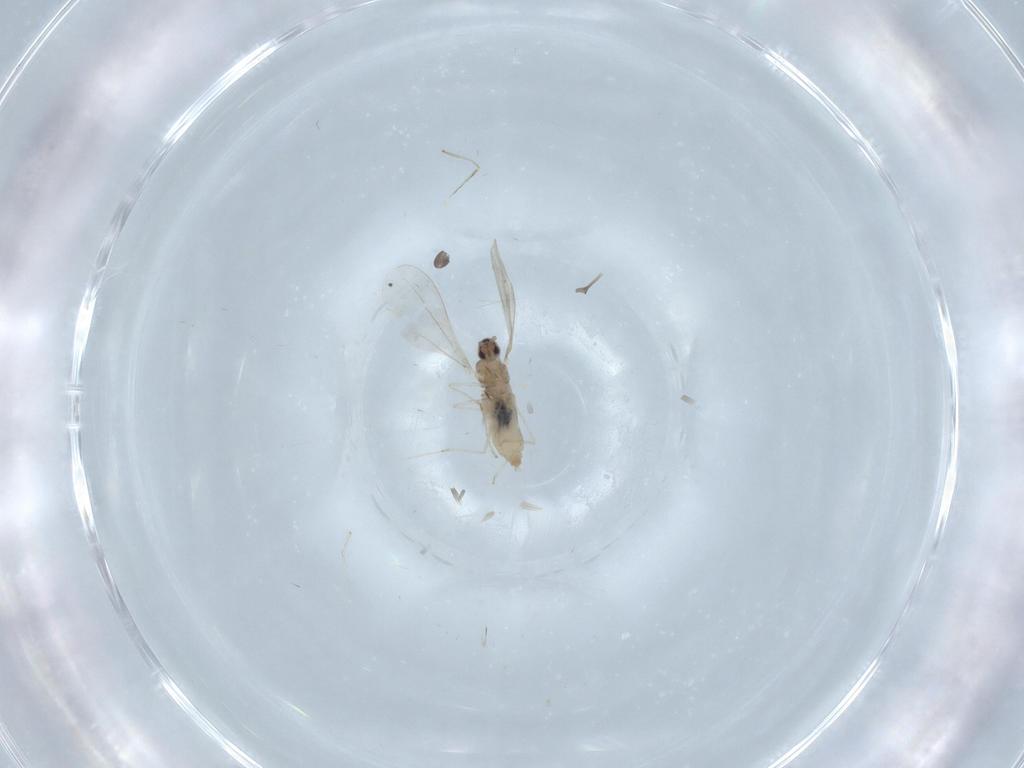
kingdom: Animalia
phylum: Arthropoda
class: Insecta
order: Diptera
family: Cecidomyiidae
